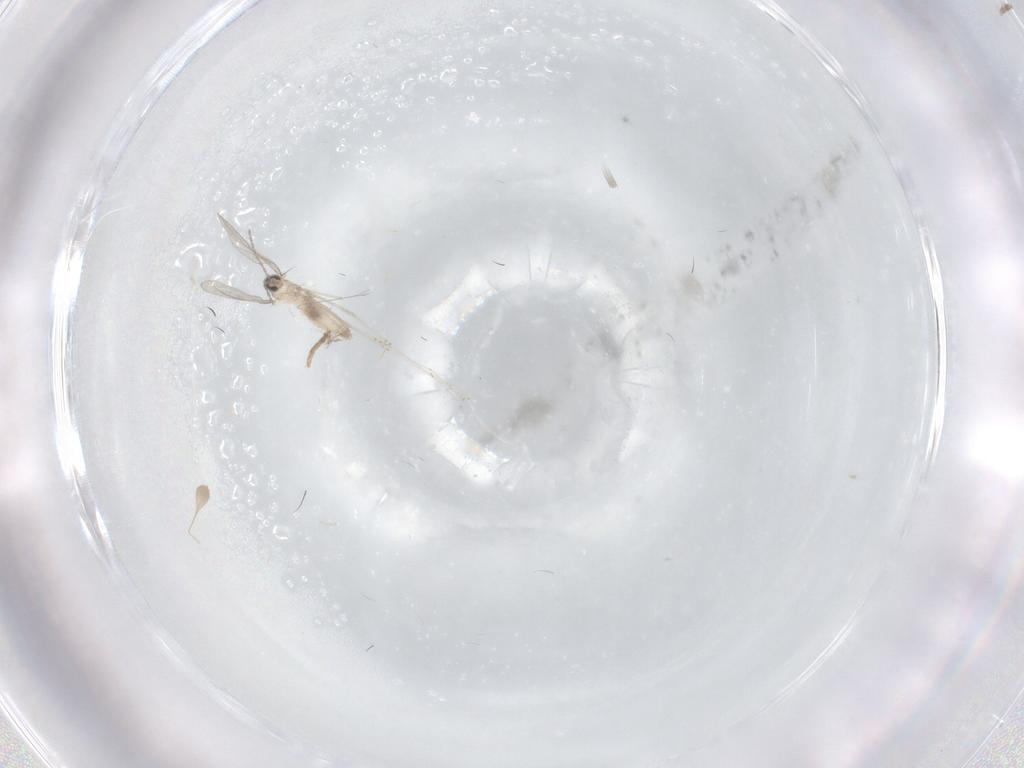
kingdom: Animalia
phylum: Arthropoda
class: Insecta
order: Diptera
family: Cecidomyiidae
